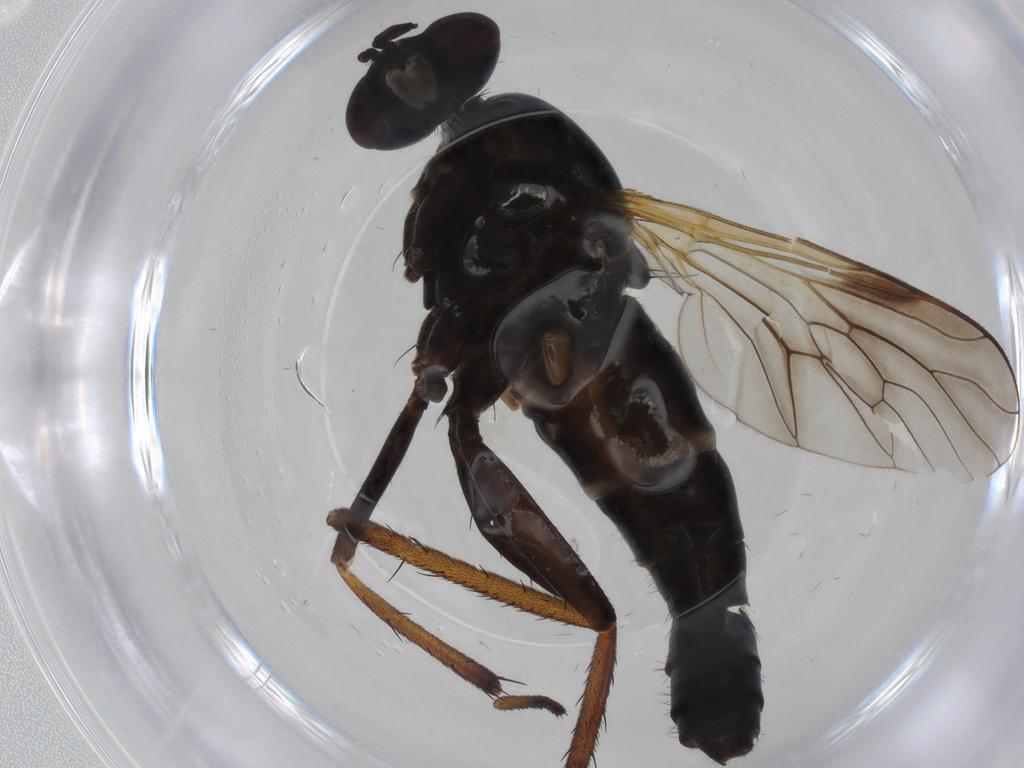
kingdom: Animalia
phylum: Arthropoda
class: Insecta
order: Diptera
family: Therevidae
